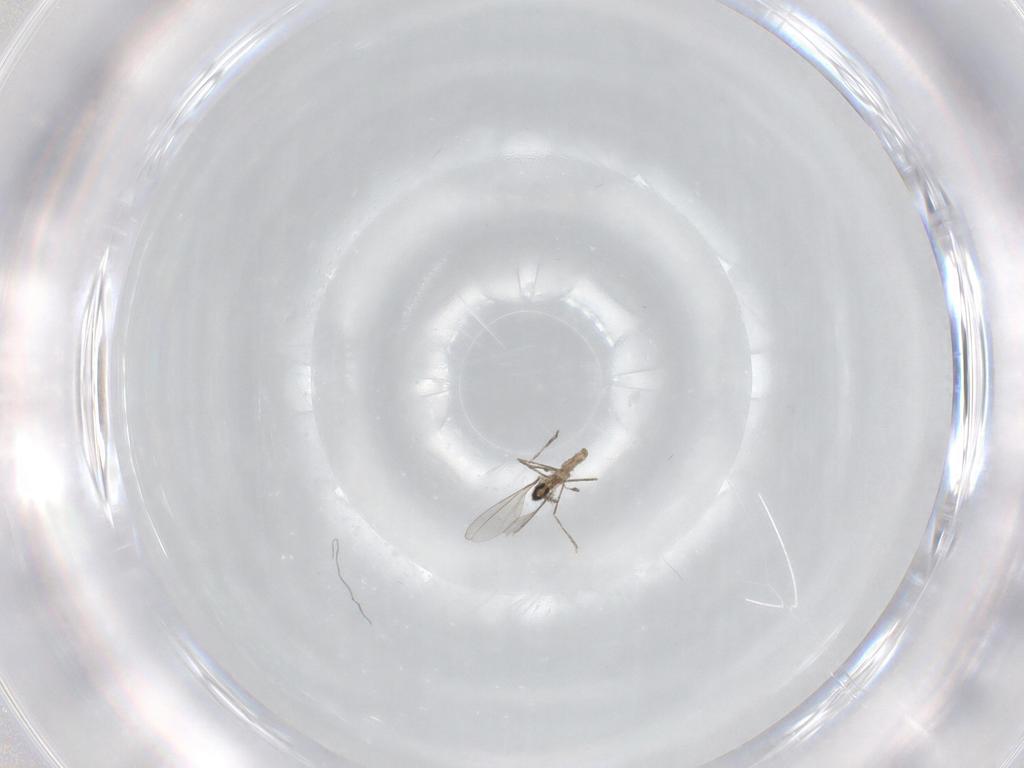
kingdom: Animalia
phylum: Arthropoda
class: Insecta
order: Diptera
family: Cecidomyiidae
